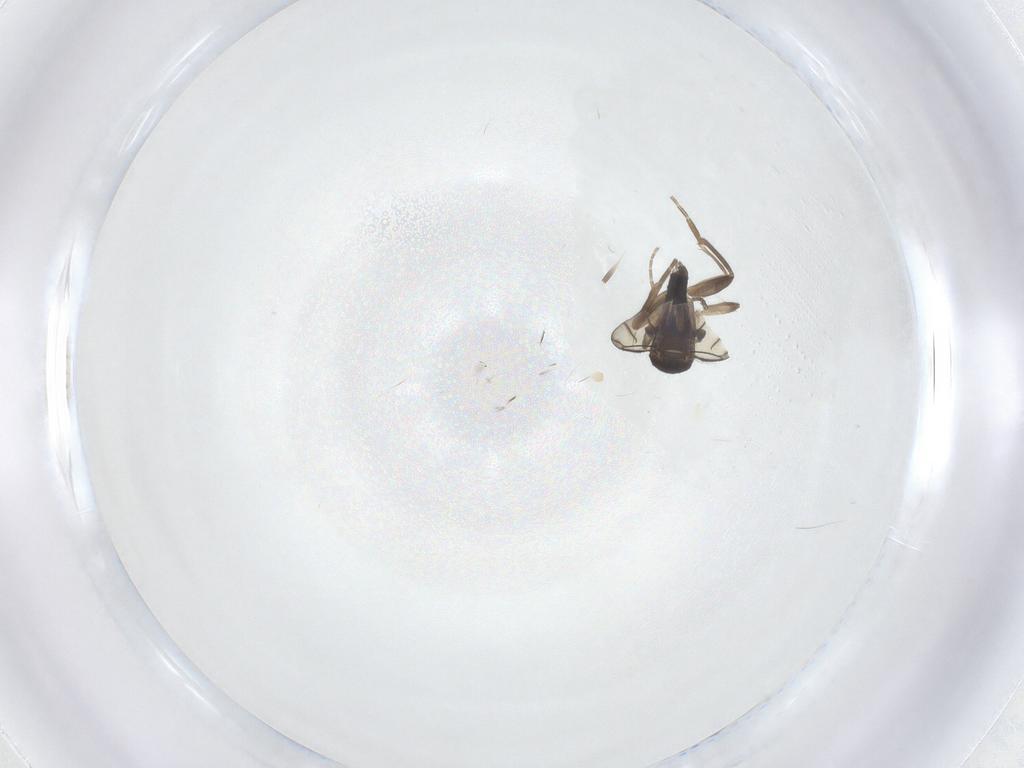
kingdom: Animalia
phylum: Arthropoda
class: Insecta
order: Diptera
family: Phoridae
